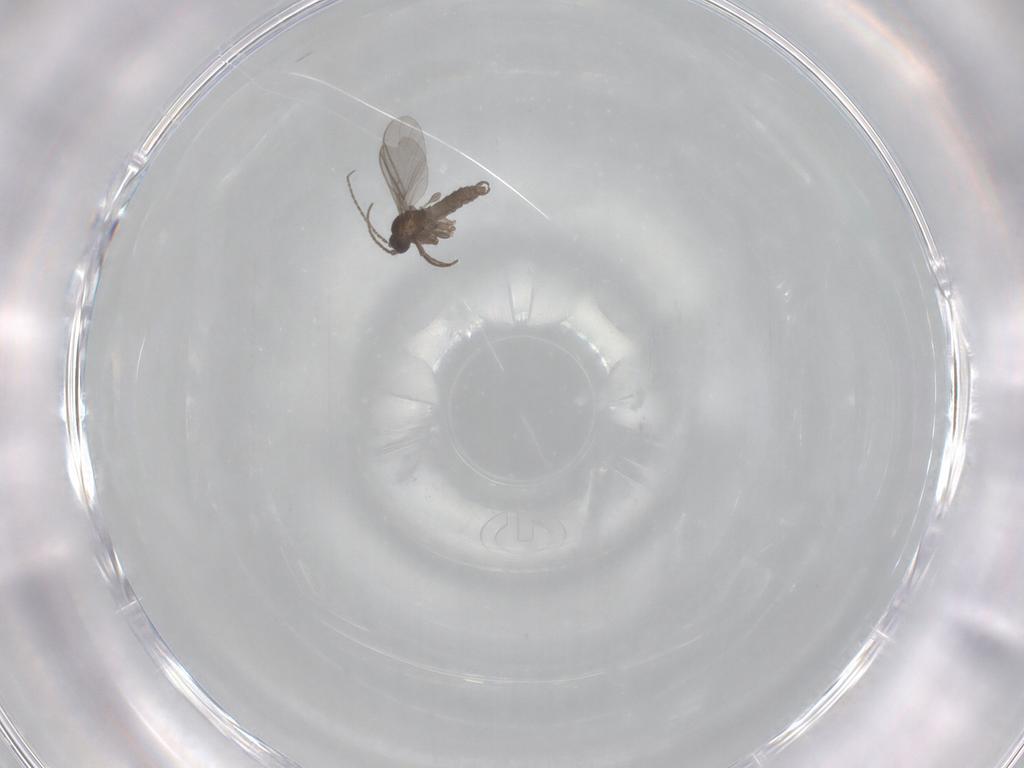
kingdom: Animalia
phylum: Arthropoda
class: Insecta
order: Diptera
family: Sciaridae
